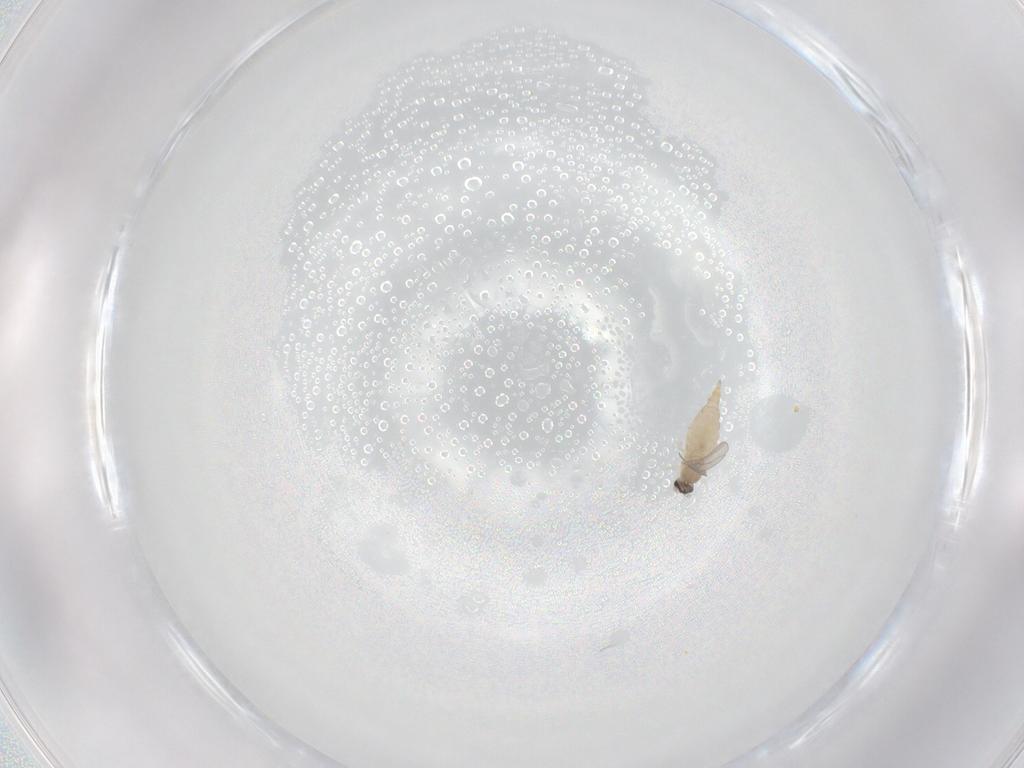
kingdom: Animalia
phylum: Arthropoda
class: Insecta
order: Diptera
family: Cecidomyiidae
